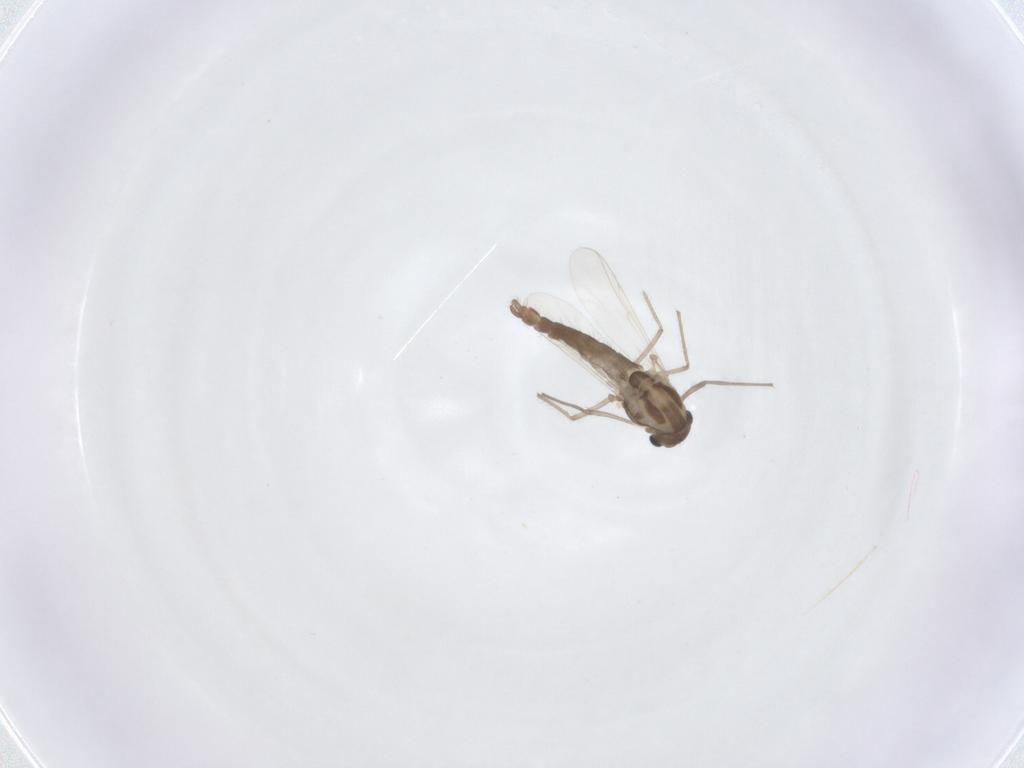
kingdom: Animalia
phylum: Arthropoda
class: Insecta
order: Diptera
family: Chironomidae
